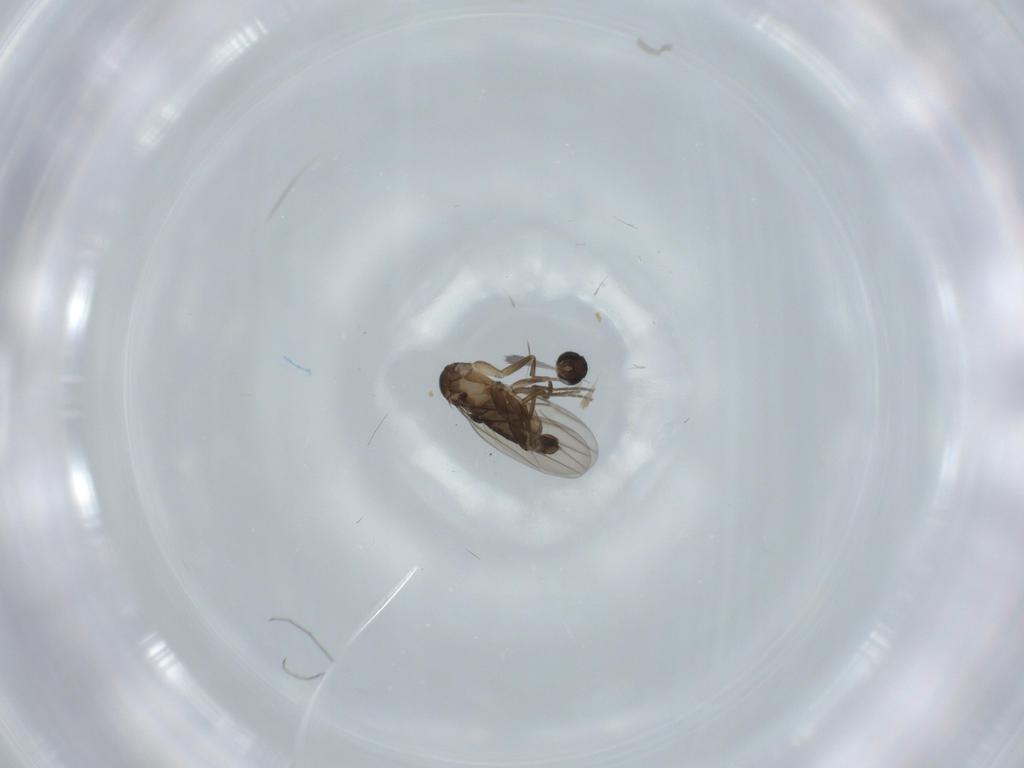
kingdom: Animalia
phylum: Arthropoda
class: Insecta
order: Diptera
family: Phoridae
